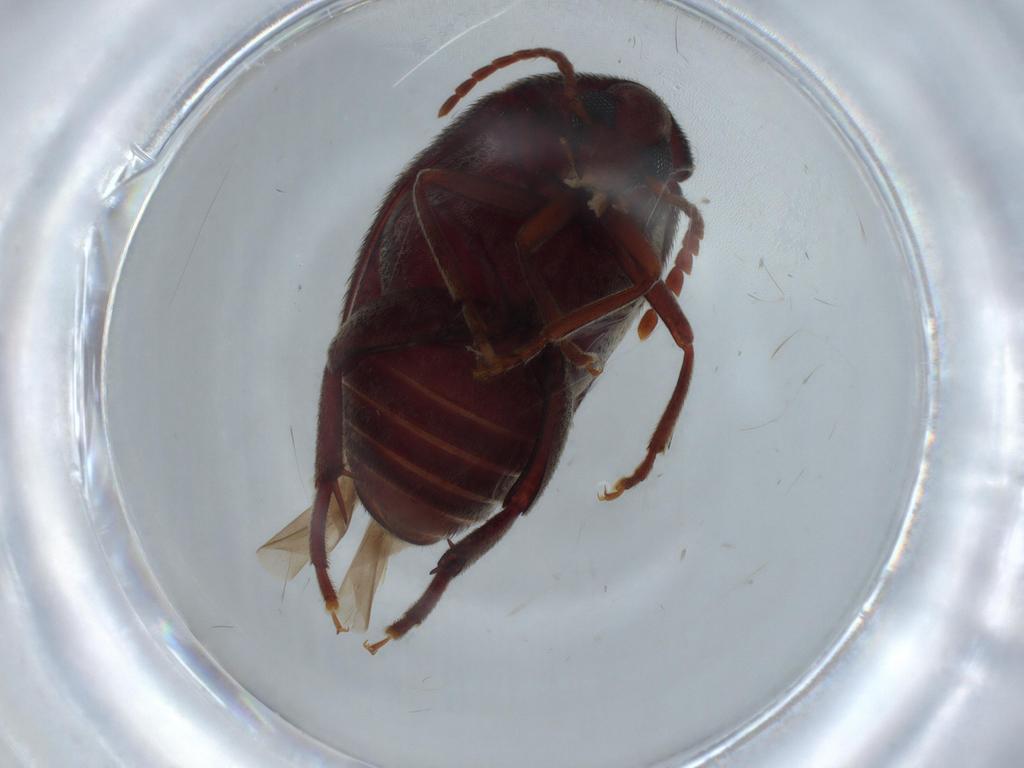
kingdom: Animalia
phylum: Arthropoda
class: Insecta
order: Coleoptera
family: Chrysomelidae
